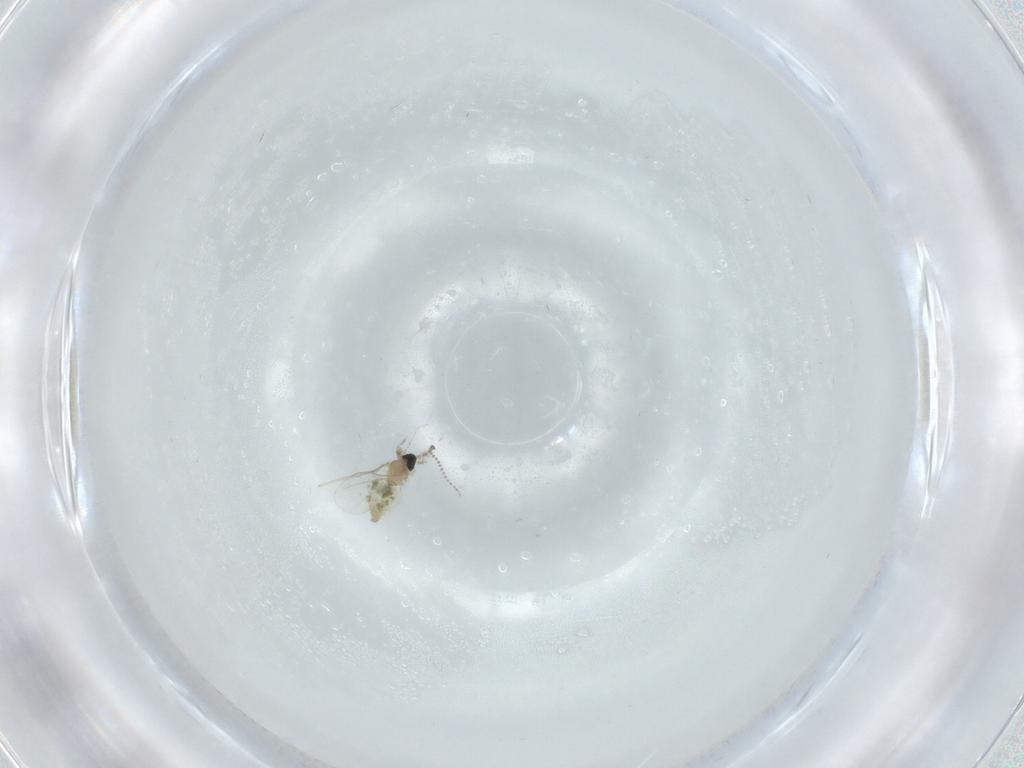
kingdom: Animalia
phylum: Arthropoda
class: Insecta
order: Diptera
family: Cecidomyiidae
